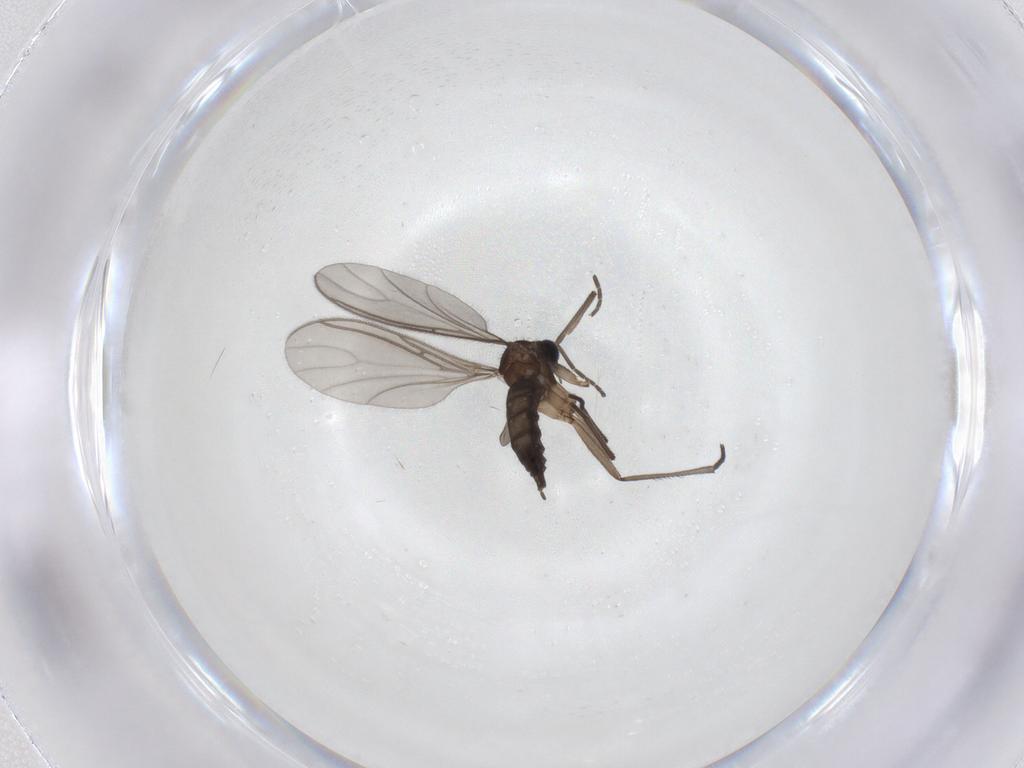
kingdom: Animalia
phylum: Arthropoda
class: Insecta
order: Diptera
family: Sciaridae
